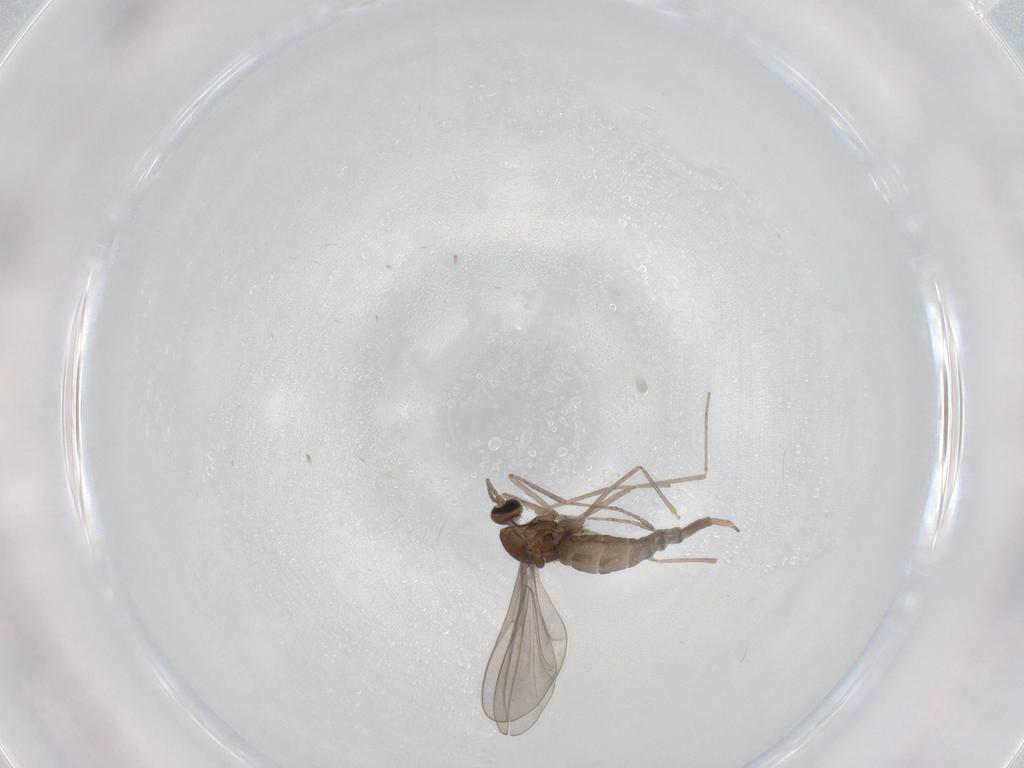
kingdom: Animalia
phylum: Arthropoda
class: Insecta
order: Diptera
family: Cecidomyiidae
